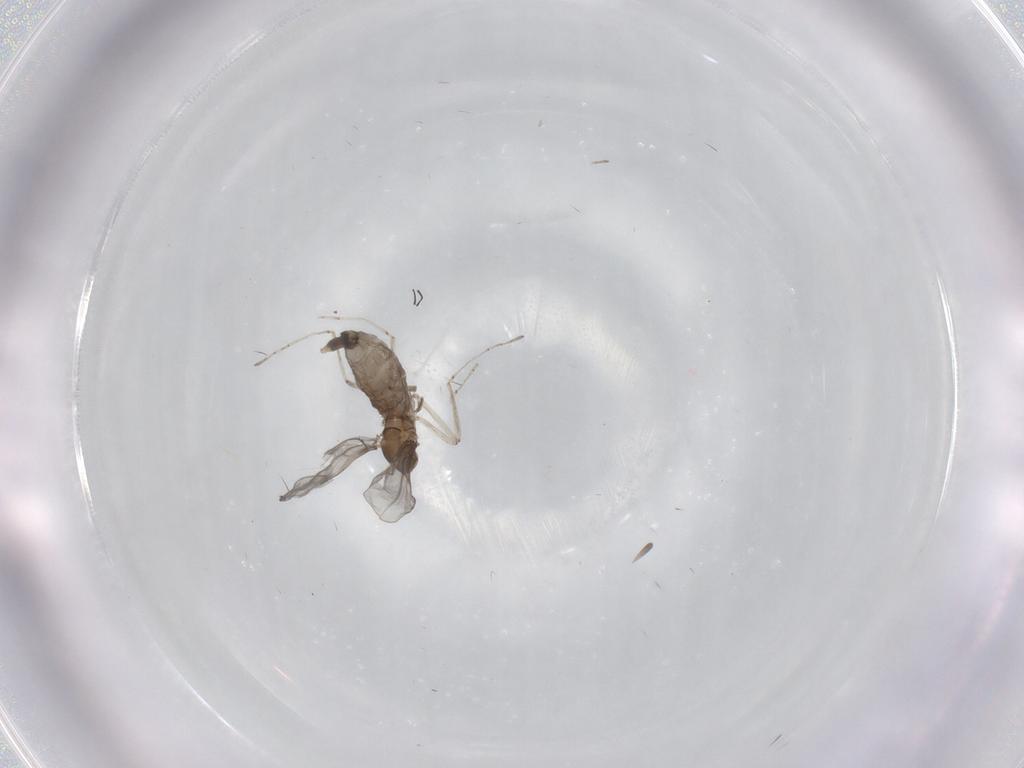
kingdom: Animalia
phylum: Arthropoda
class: Insecta
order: Diptera
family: Ceratopogonidae
